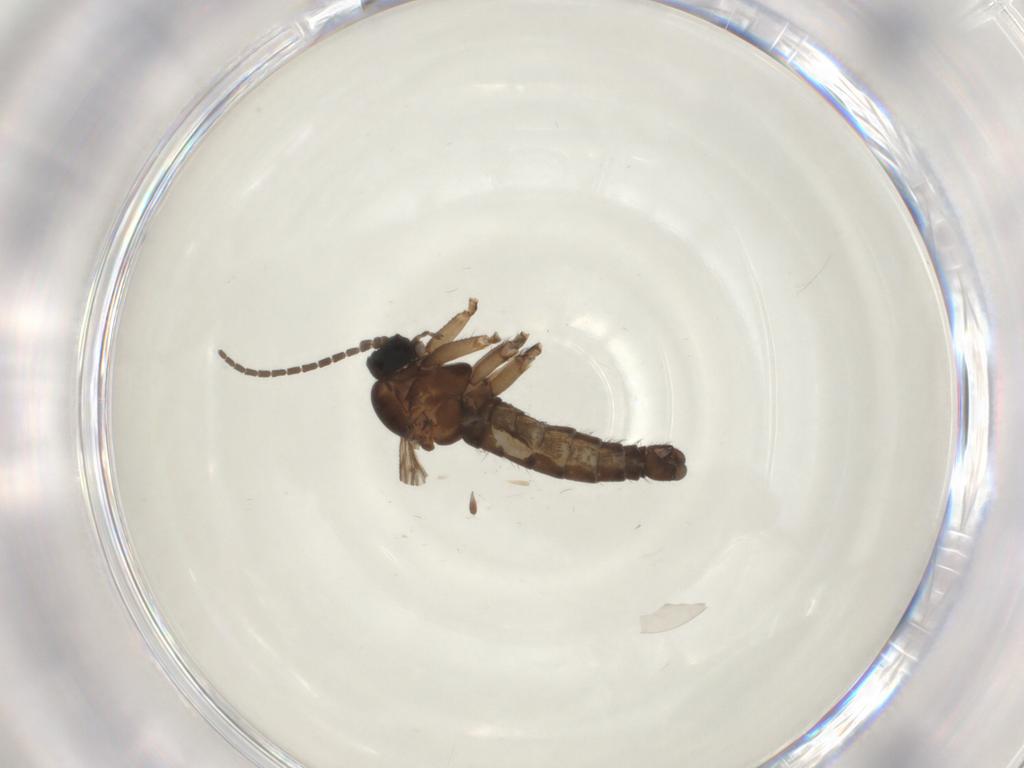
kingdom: Animalia
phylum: Arthropoda
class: Insecta
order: Diptera
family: Sciaridae
